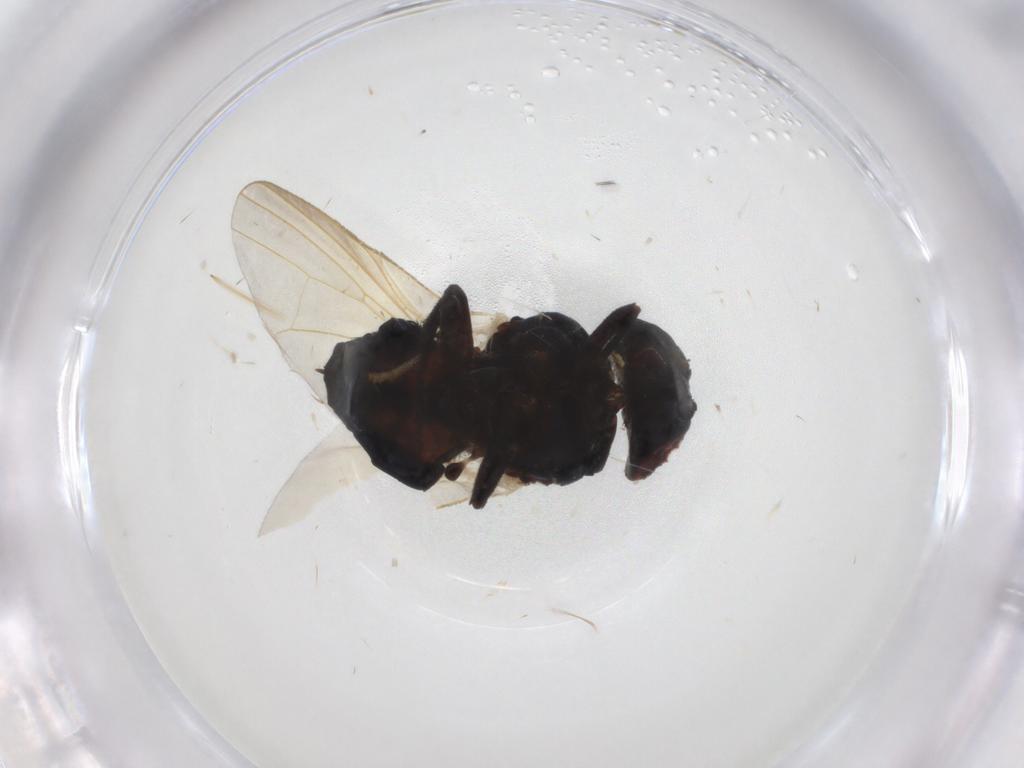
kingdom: Animalia
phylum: Arthropoda
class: Insecta
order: Diptera
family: Lonchaeidae
